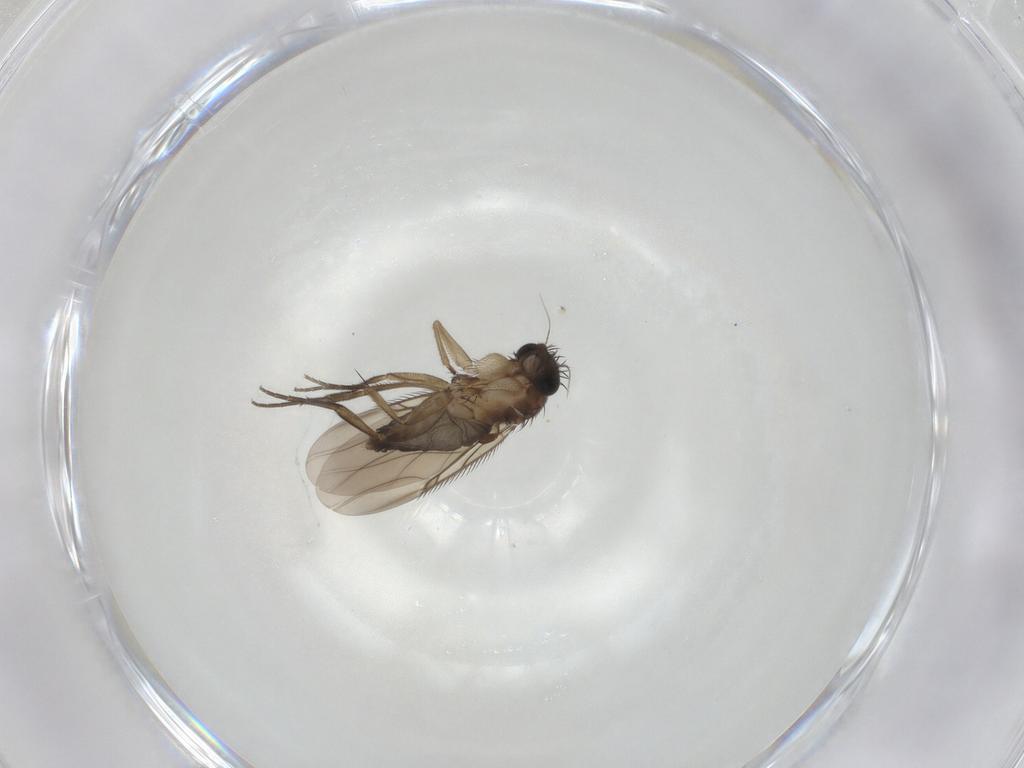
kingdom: Animalia
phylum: Arthropoda
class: Insecta
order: Diptera
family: Phoridae
